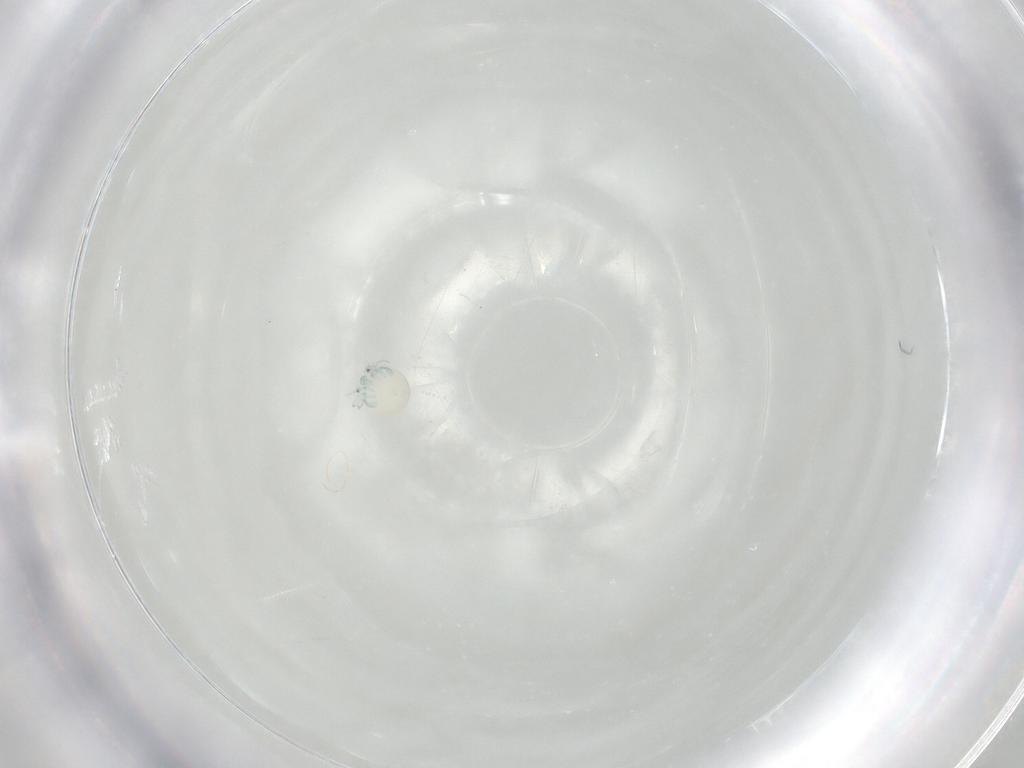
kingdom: Animalia
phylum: Arthropoda
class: Arachnida
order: Trombidiformes
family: Arrenuridae
